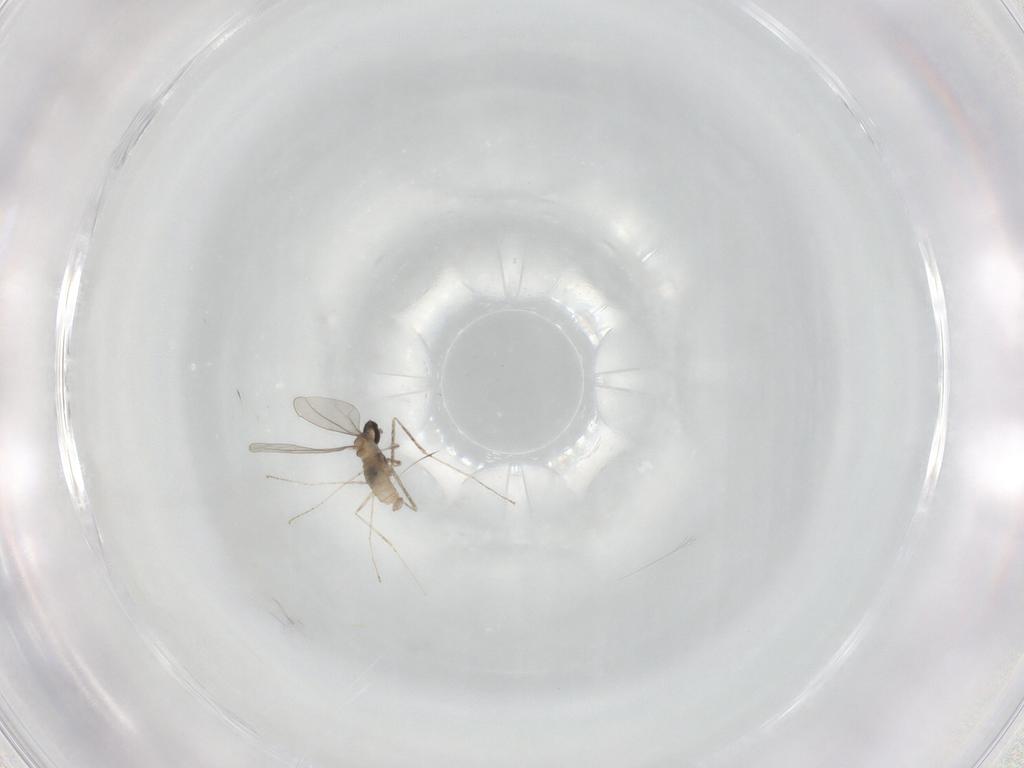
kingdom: Animalia
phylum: Arthropoda
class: Insecta
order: Diptera
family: Cecidomyiidae
